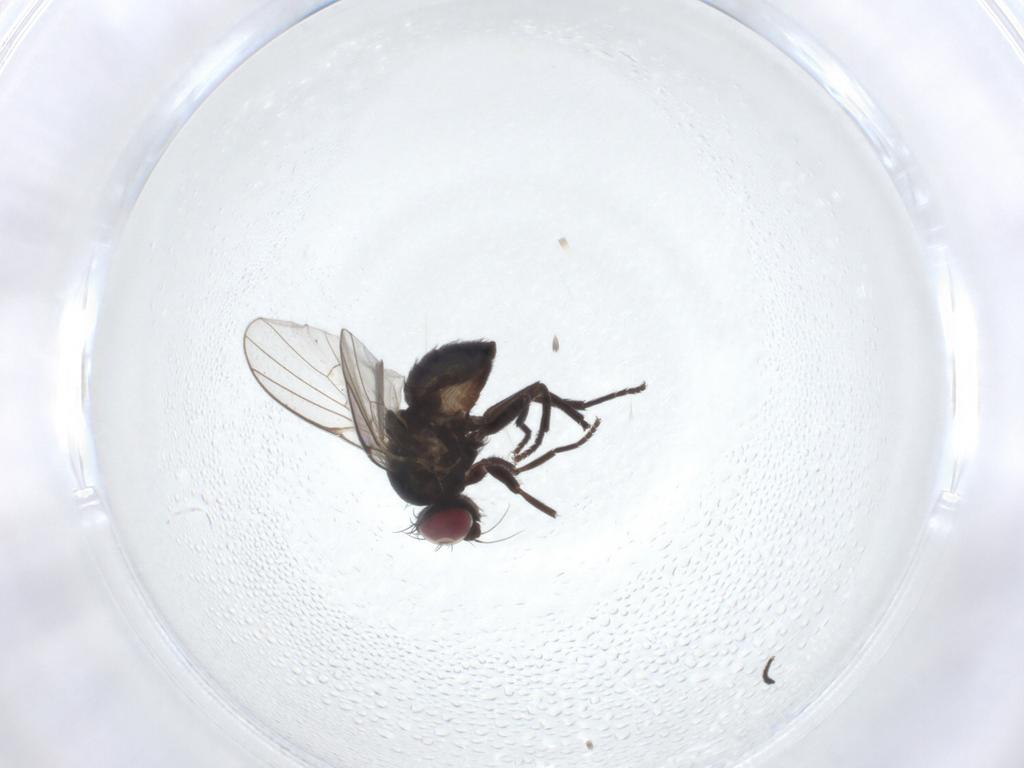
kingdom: Animalia
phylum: Arthropoda
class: Insecta
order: Diptera
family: Agromyzidae
